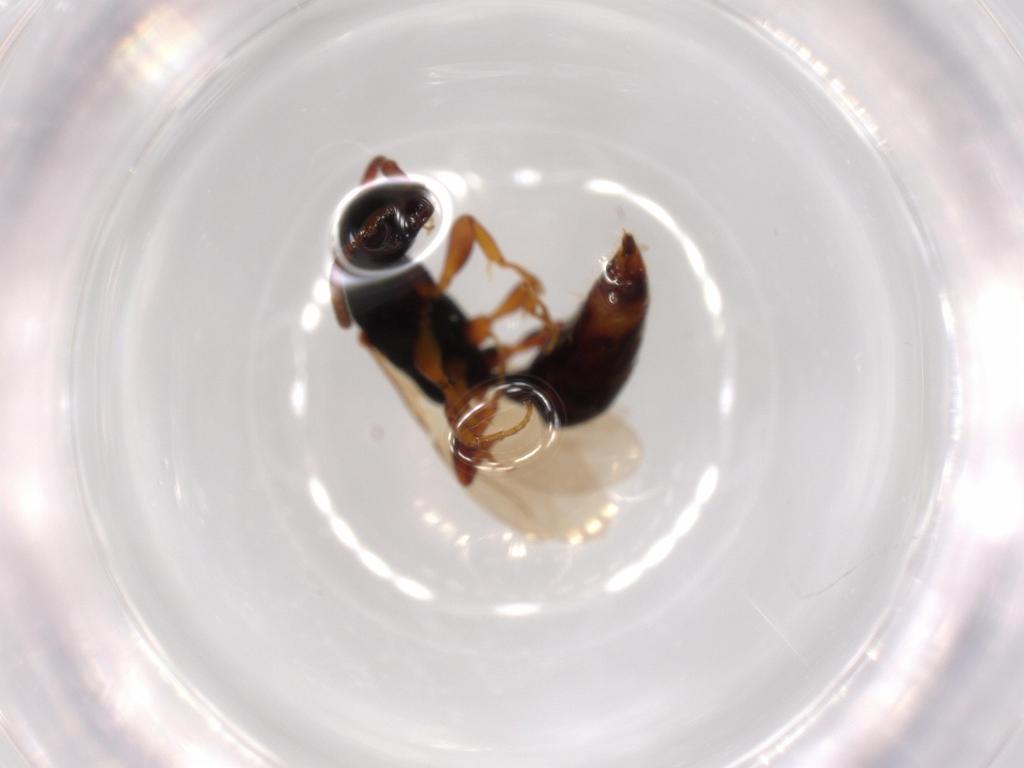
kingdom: Animalia
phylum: Arthropoda
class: Insecta
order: Hymenoptera
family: Bethylidae
